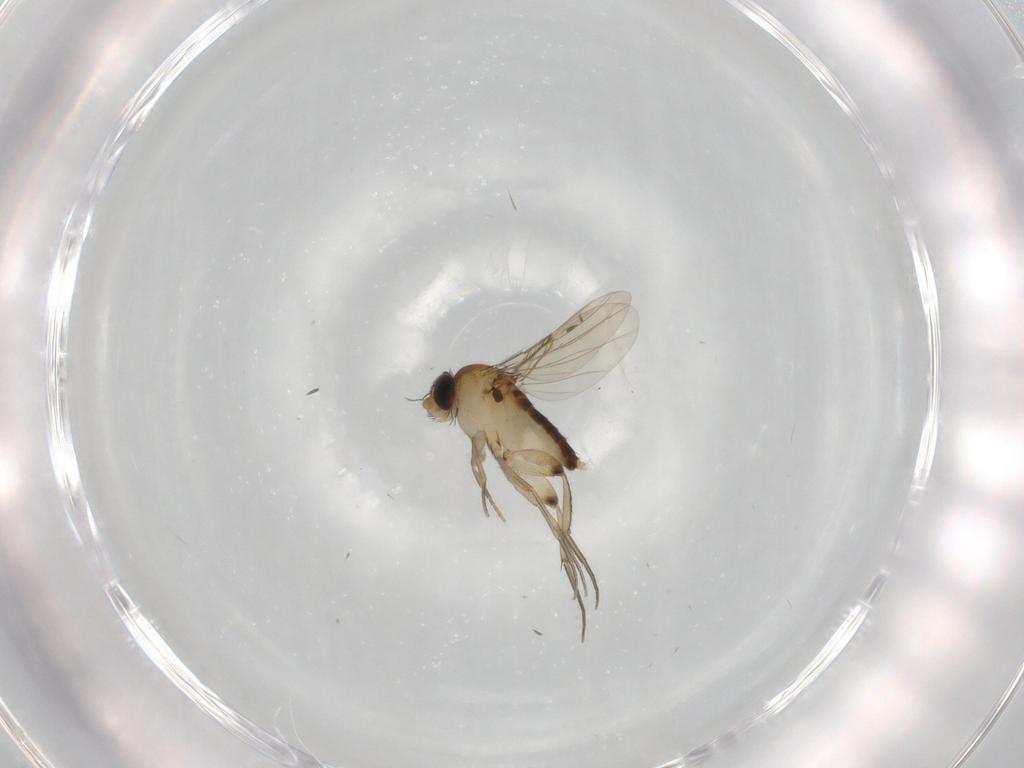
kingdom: Animalia
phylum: Arthropoda
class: Insecta
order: Diptera
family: Phoridae
